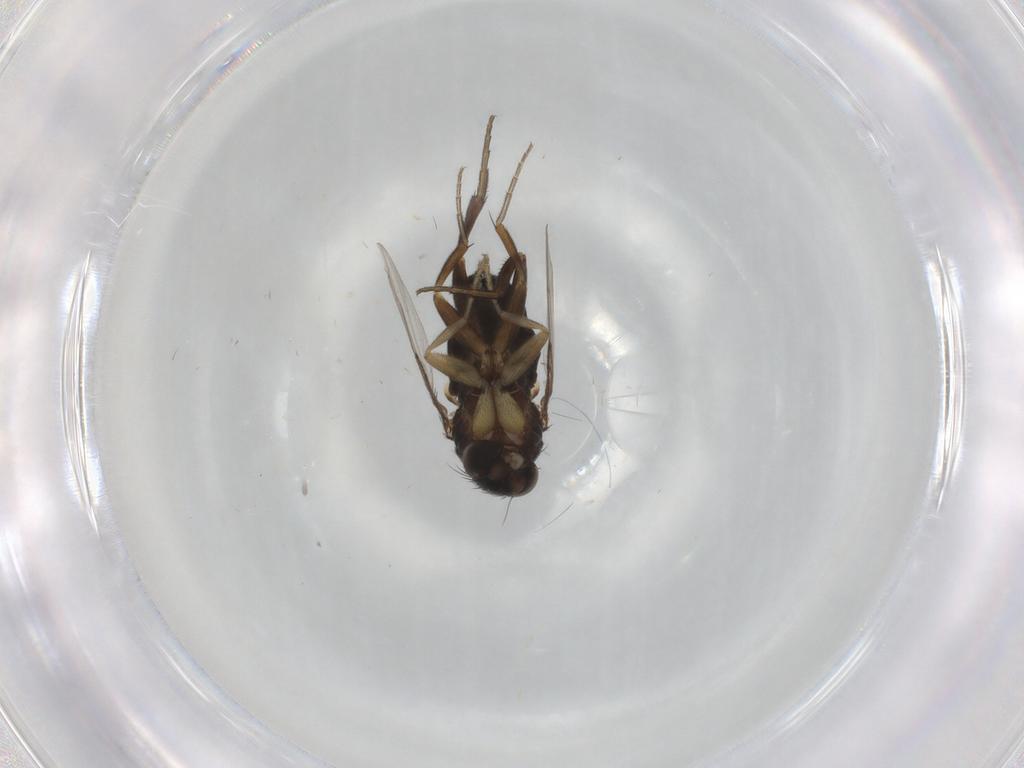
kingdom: Animalia
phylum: Arthropoda
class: Insecta
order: Diptera
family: Phoridae
